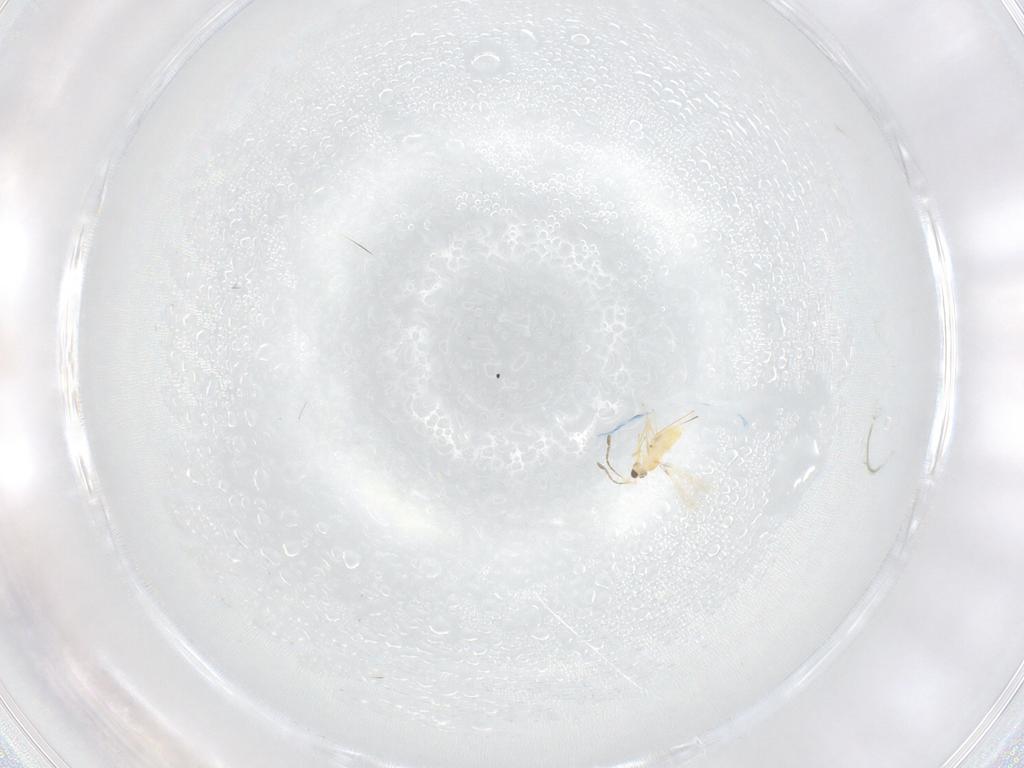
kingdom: Animalia
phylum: Arthropoda
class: Insecta
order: Hymenoptera
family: Mymaridae
